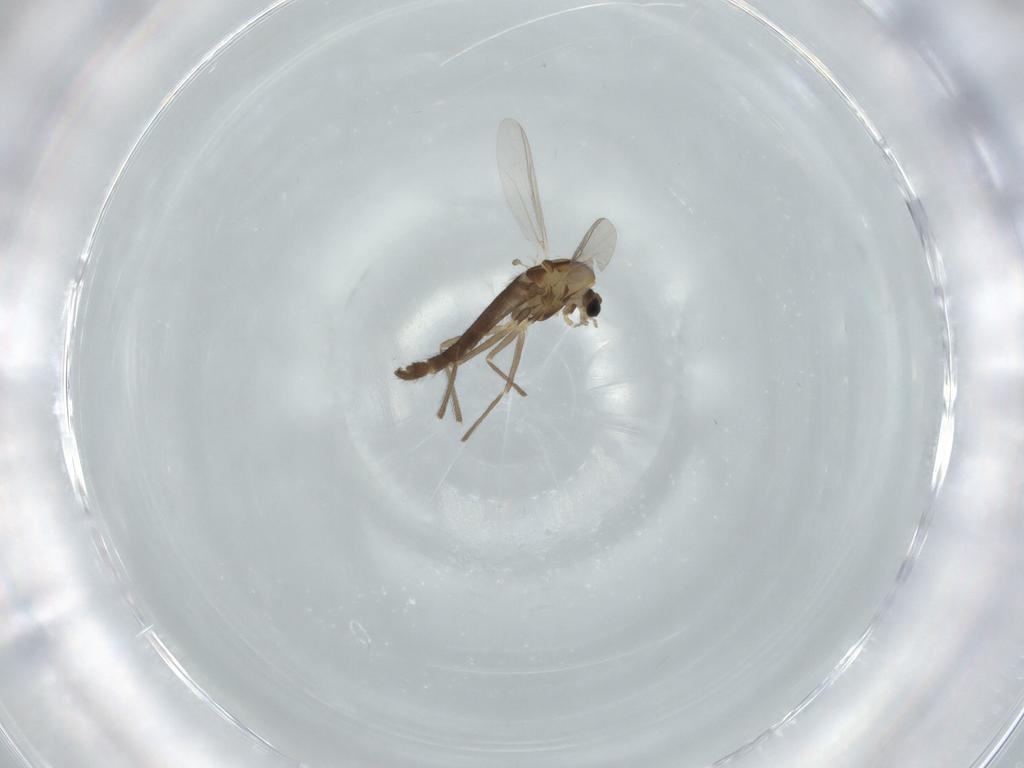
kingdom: Animalia
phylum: Arthropoda
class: Insecta
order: Diptera
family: Chironomidae
